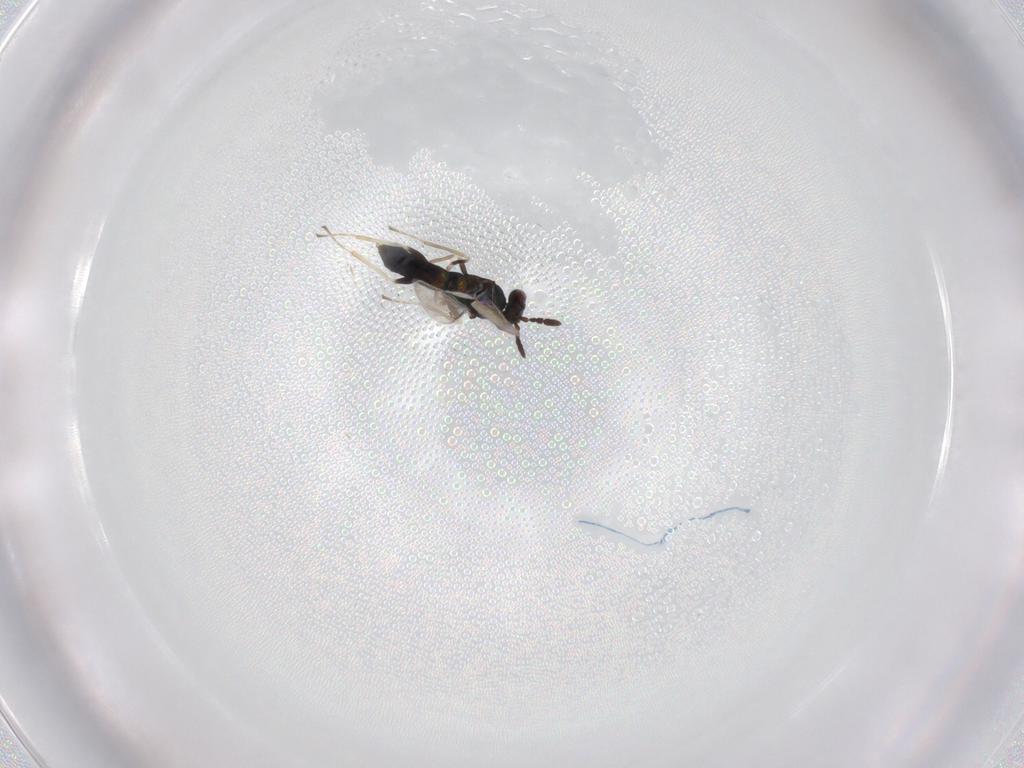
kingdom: Animalia
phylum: Arthropoda
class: Insecta
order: Hymenoptera
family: Eulophidae
